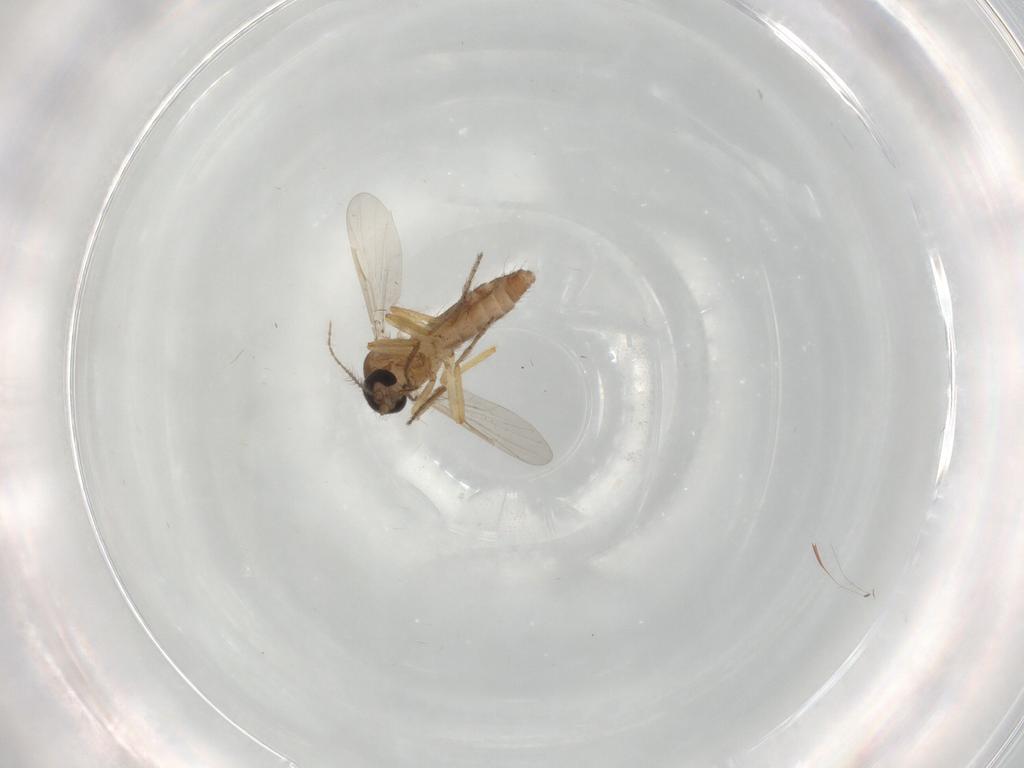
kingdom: Animalia
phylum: Arthropoda
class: Insecta
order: Diptera
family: Ceratopogonidae
